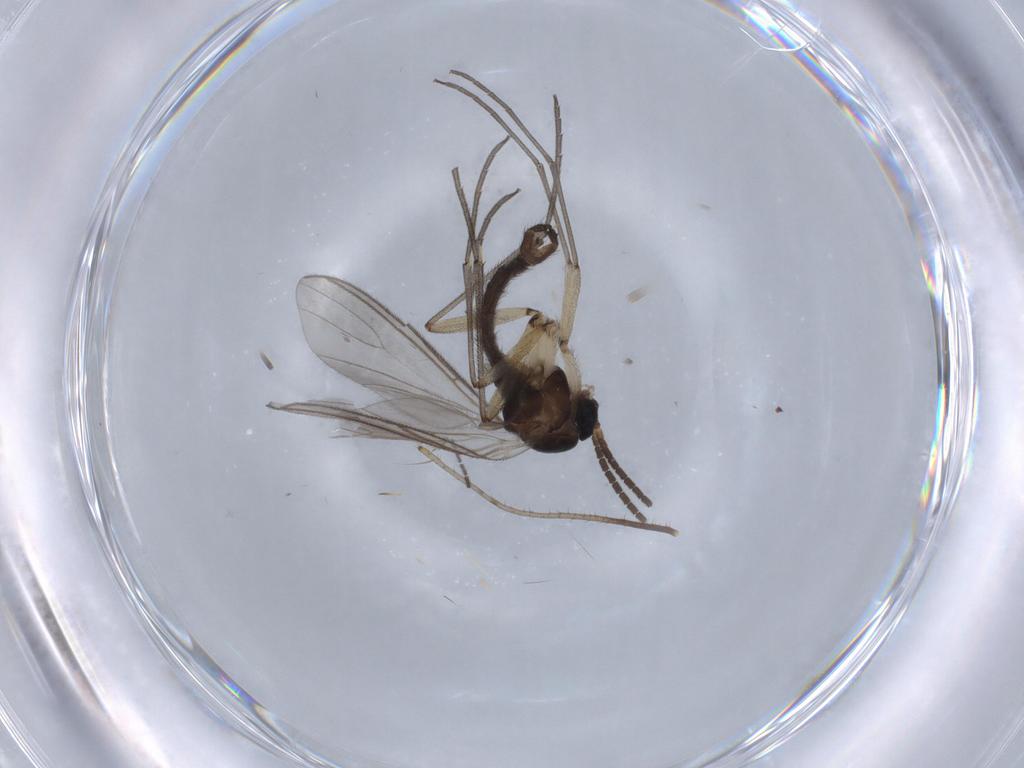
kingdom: Animalia
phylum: Arthropoda
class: Insecta
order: Diptera
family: Sciaridae
